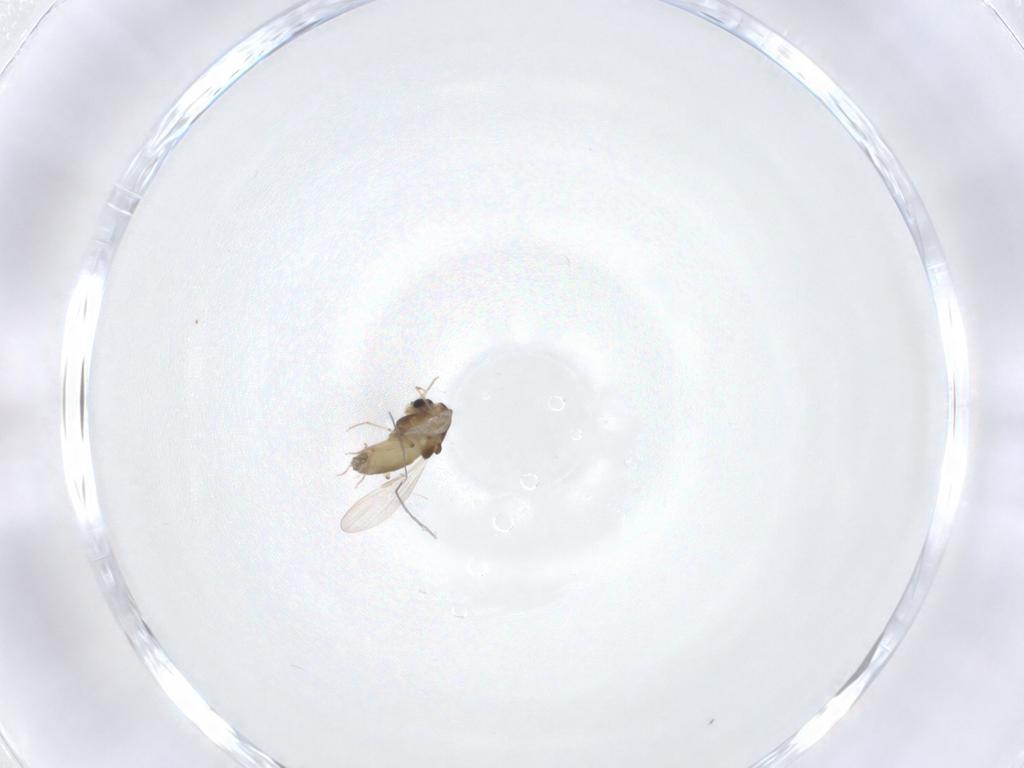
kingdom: Animalia
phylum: Arthropoda
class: Insecta
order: Diptera
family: Chironomidae
